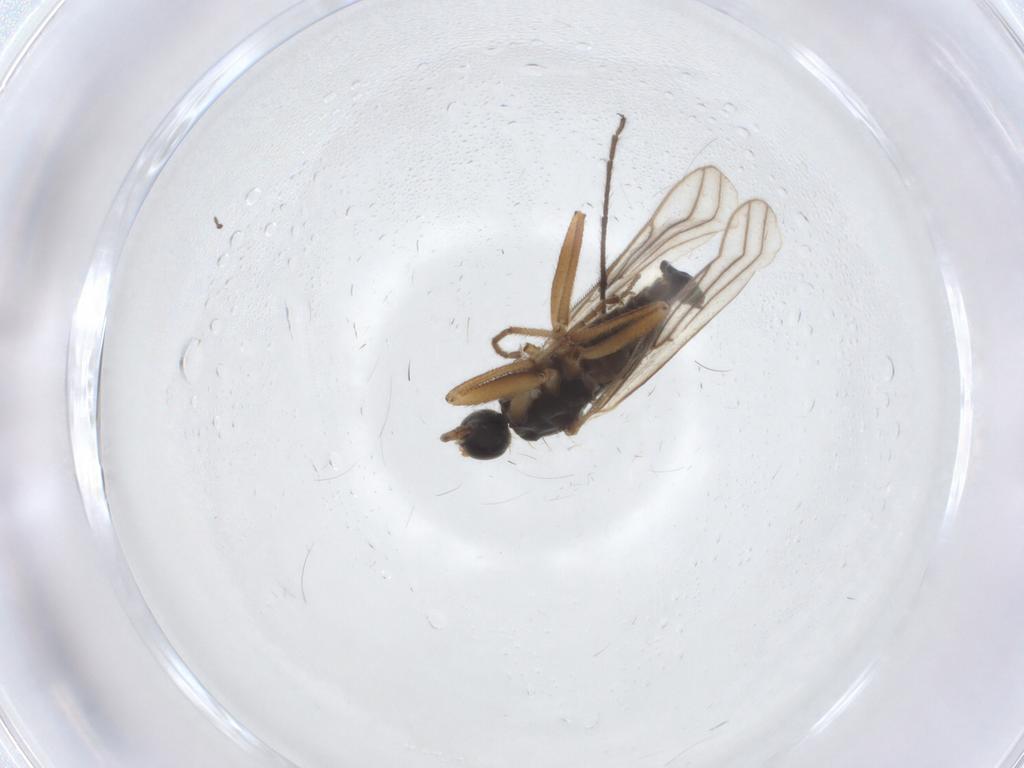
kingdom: Animalia
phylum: Arthropoda
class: Insecta
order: Diptera
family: Hybotidae
